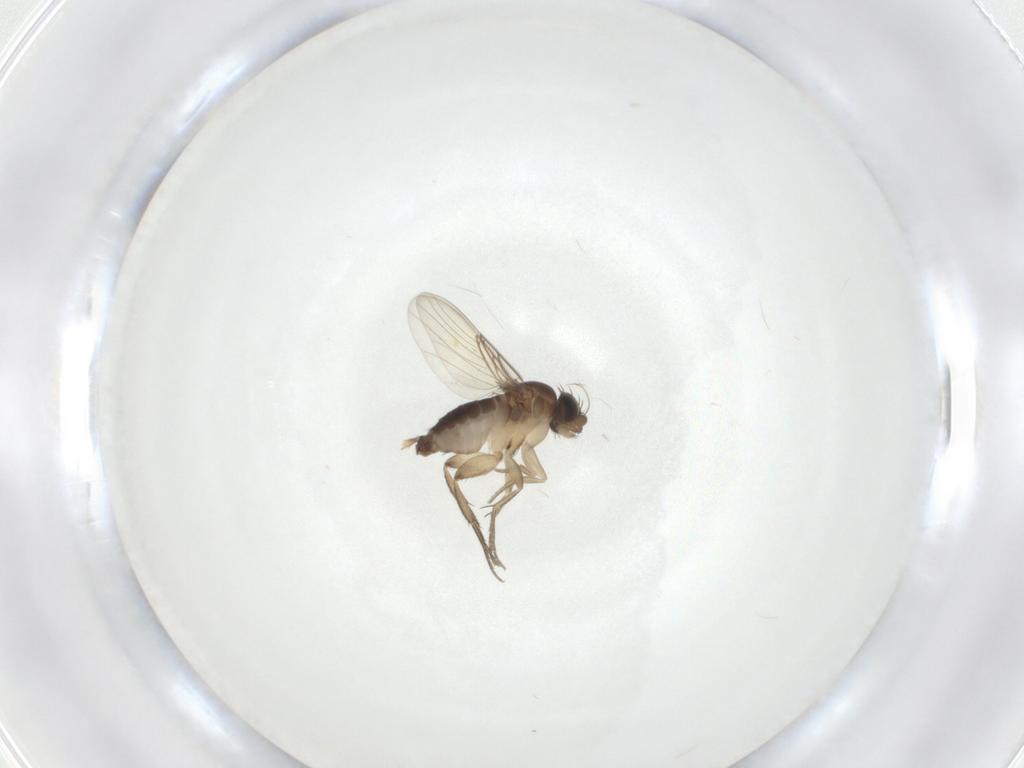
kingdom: Animalia
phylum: Arthropoda
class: Insecta
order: Diptera
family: Phoridae
